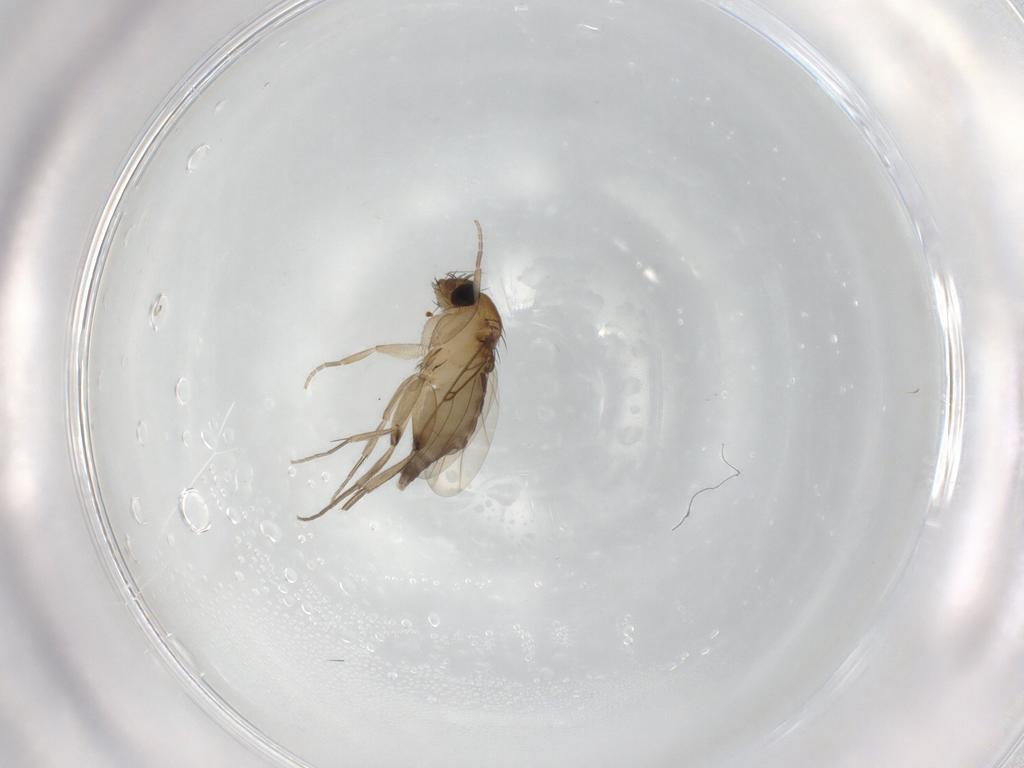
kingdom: Animalia
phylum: Arthropoda
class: Insecta
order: Diptera
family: Phoridae
